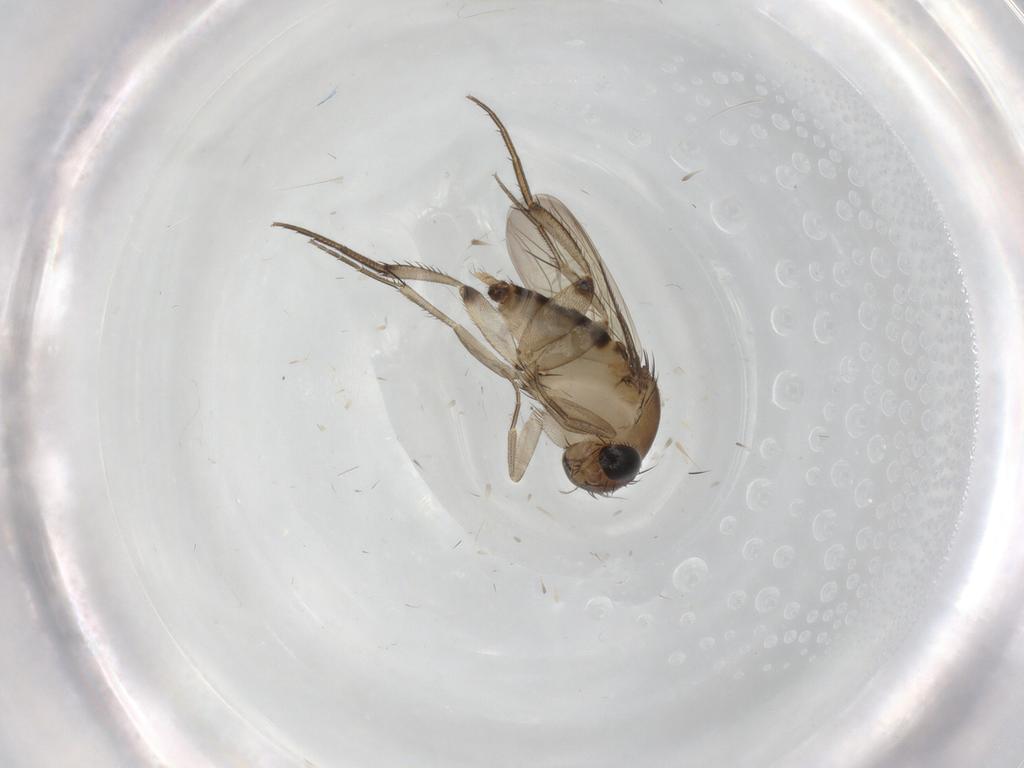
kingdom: Animalia
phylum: Arthropoda
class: Insecta
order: Diptera
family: Phoridae
